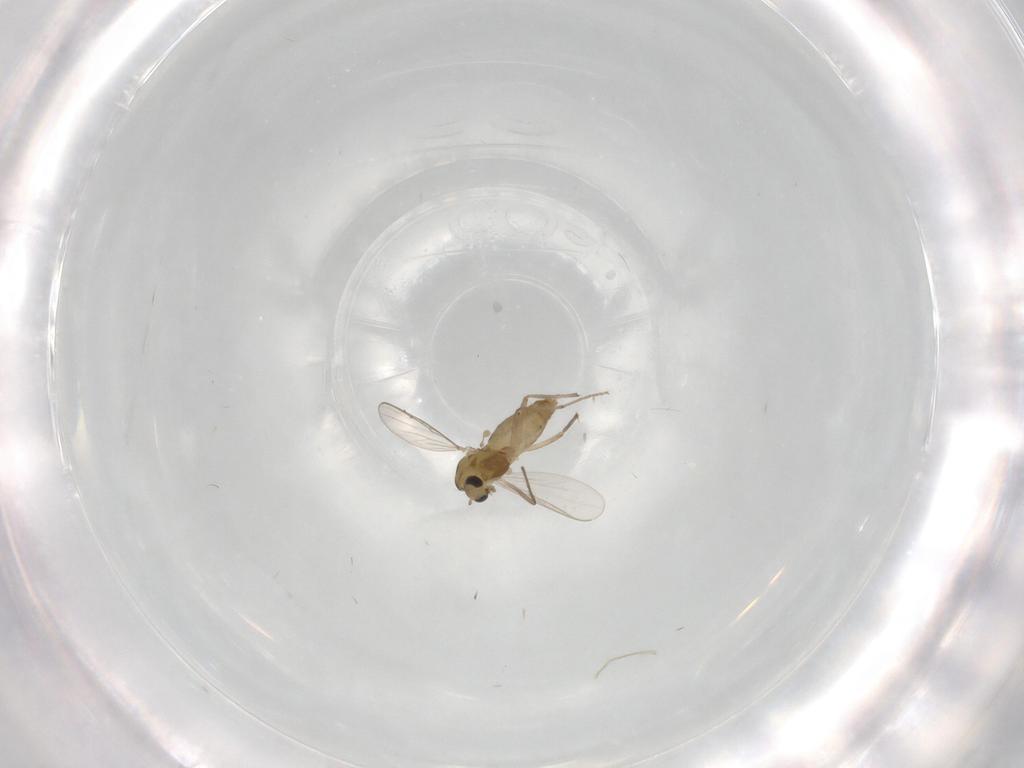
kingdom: Animalia
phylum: Arthropoda
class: Insecta
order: Diptera
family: Chironomidae
